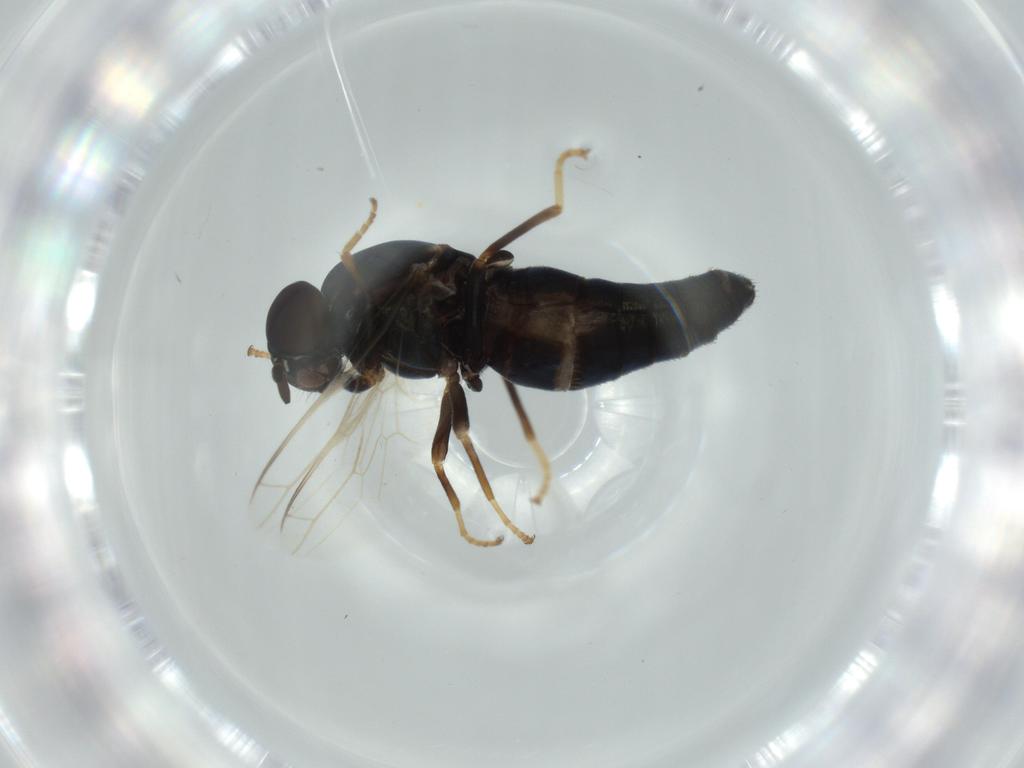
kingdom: Animalia
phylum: Arthropoda
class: Insecta
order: Diptera
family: Scenopinidae
